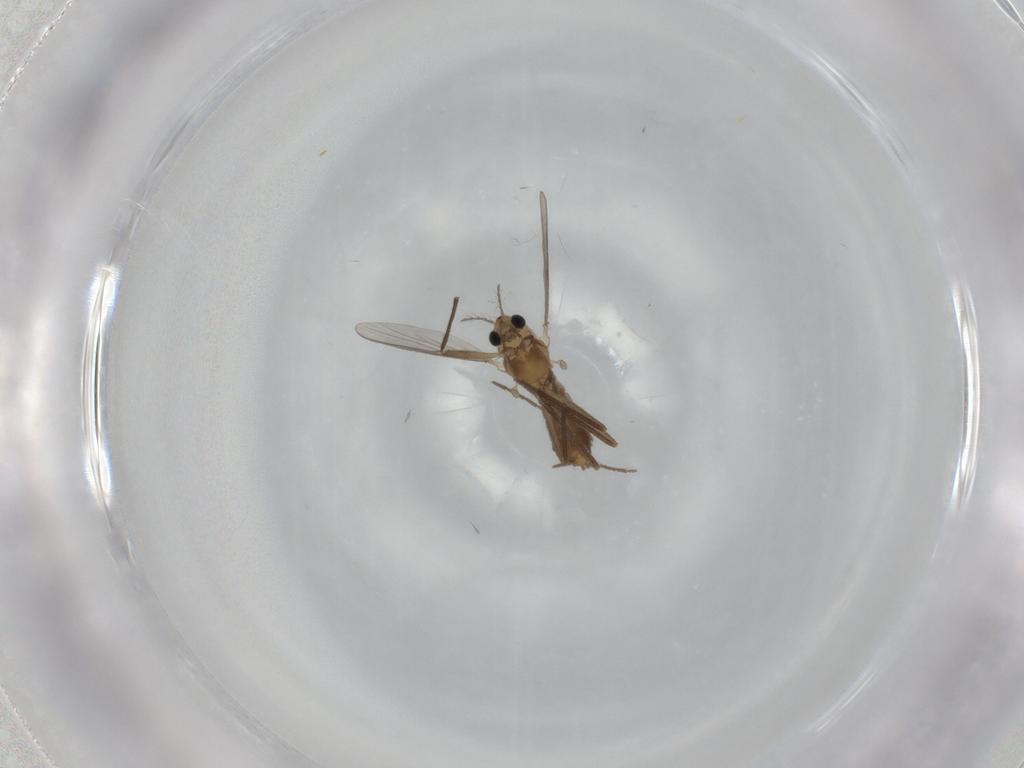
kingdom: Animalia
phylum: Arthropoda
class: Insecta
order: Diptera
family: Chironomidae
